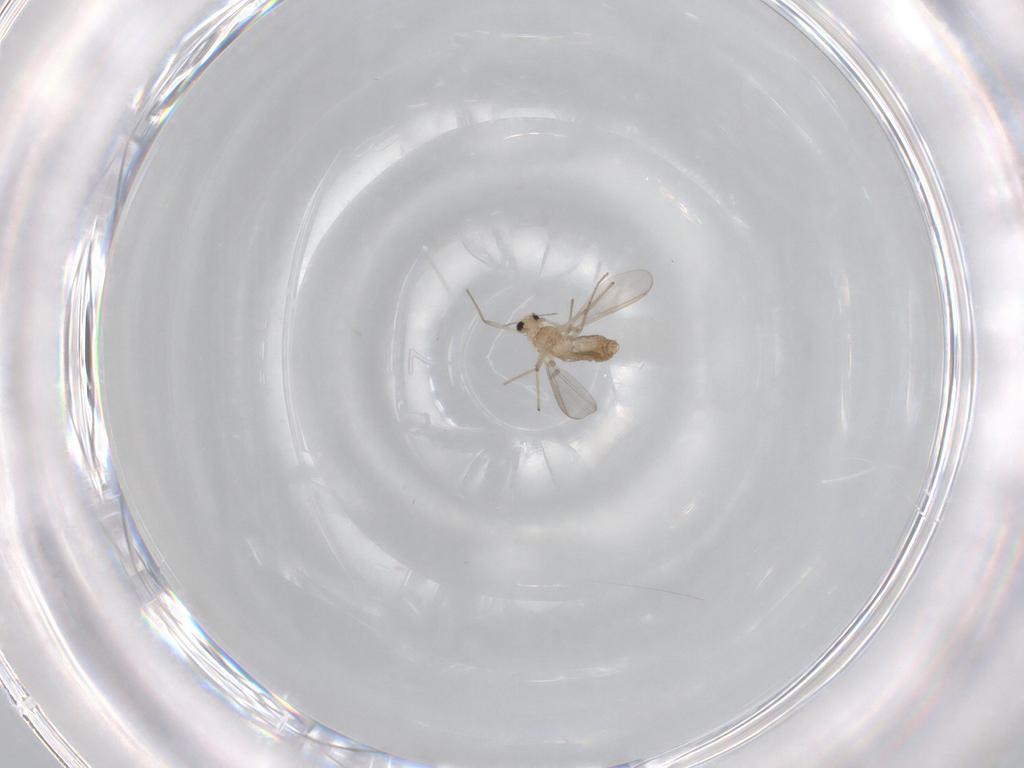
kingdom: Animalia
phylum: Arthropoda
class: Insecta
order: Diptera
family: Chironomidae
